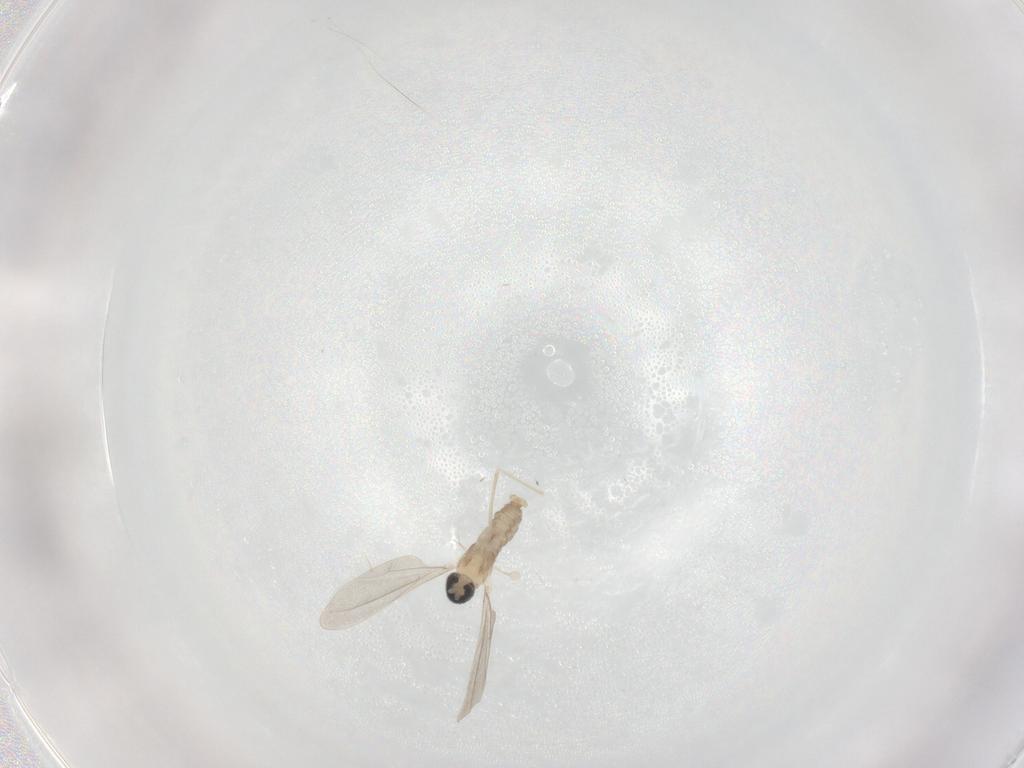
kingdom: Animalia
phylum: Arthropoda
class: Insecta
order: Diptera
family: Cecidomyiidae
